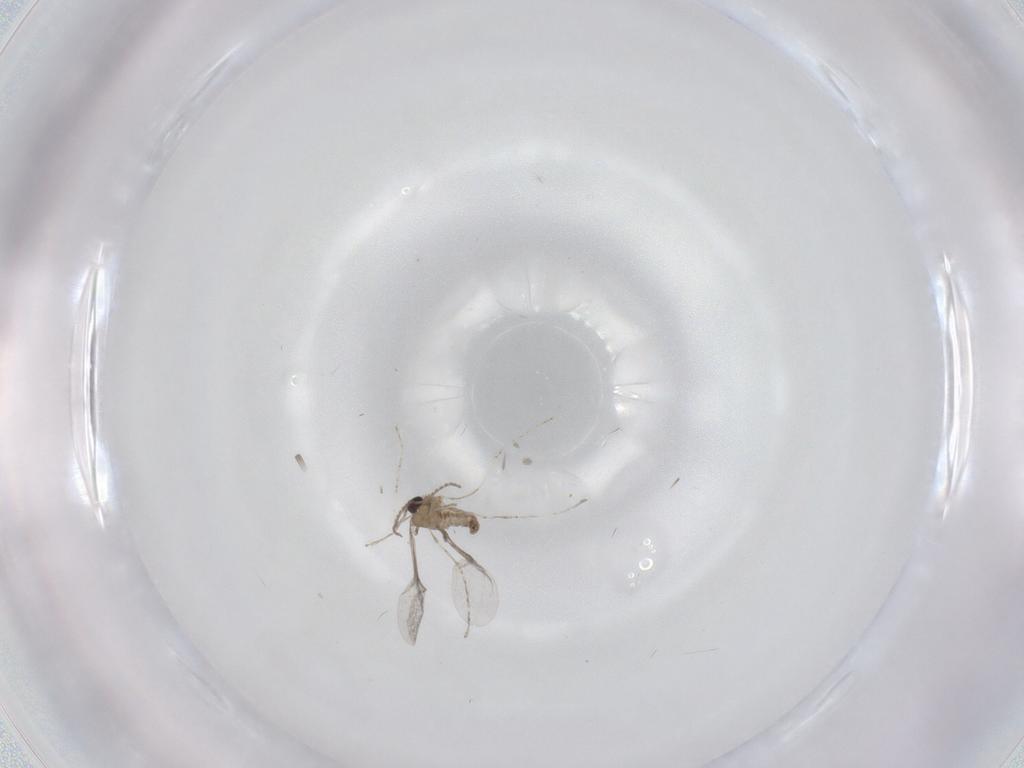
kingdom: Animalia
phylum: Arthropoda
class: Insecta
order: Diptera
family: Cecidomyiidae
